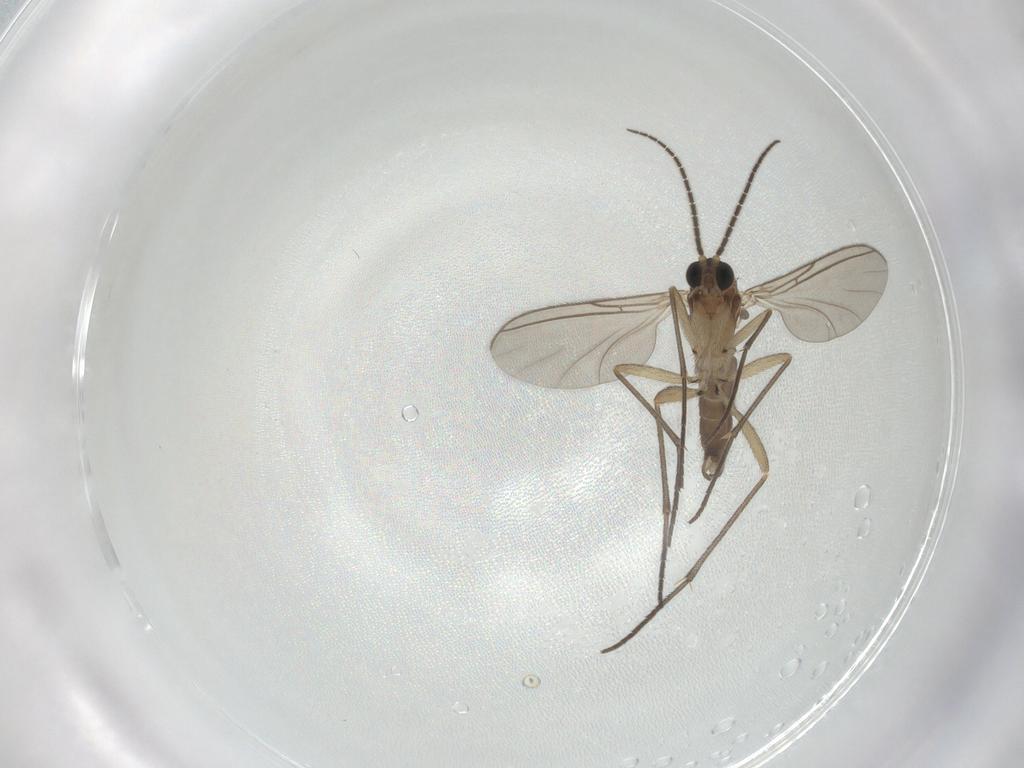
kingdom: Animalia
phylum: Arthropoda
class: Insecta
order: Diptera
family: Sciaridae
